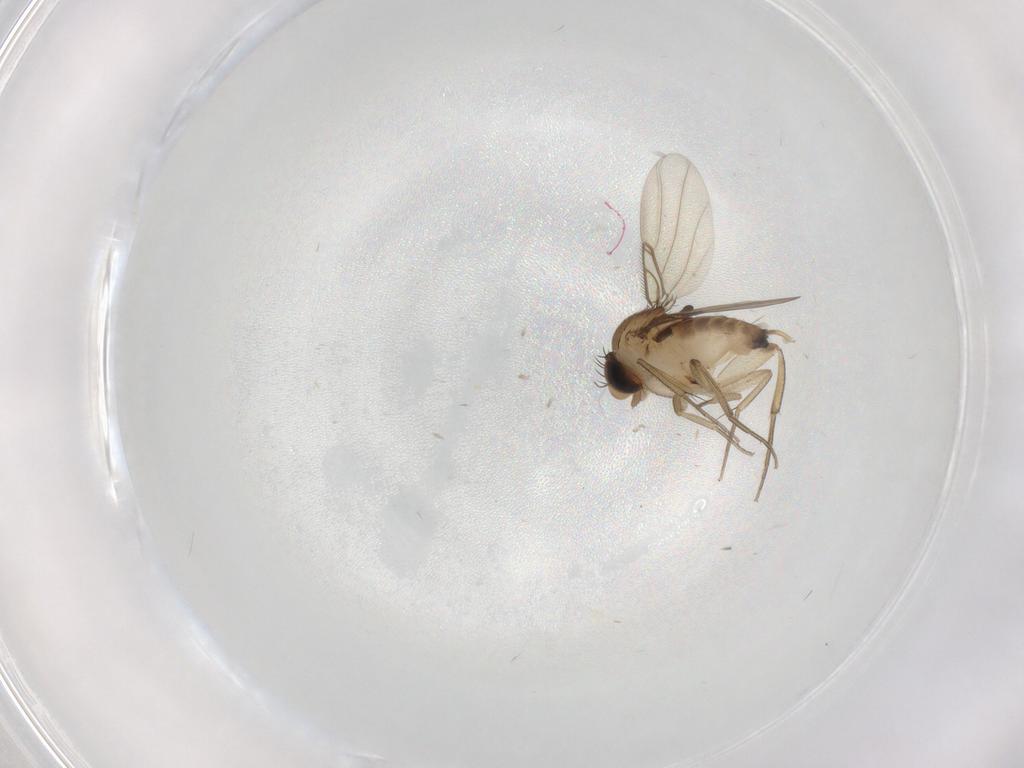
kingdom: Animalia
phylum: Arthropoda
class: Insecta
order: Diptera
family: Phoridae
